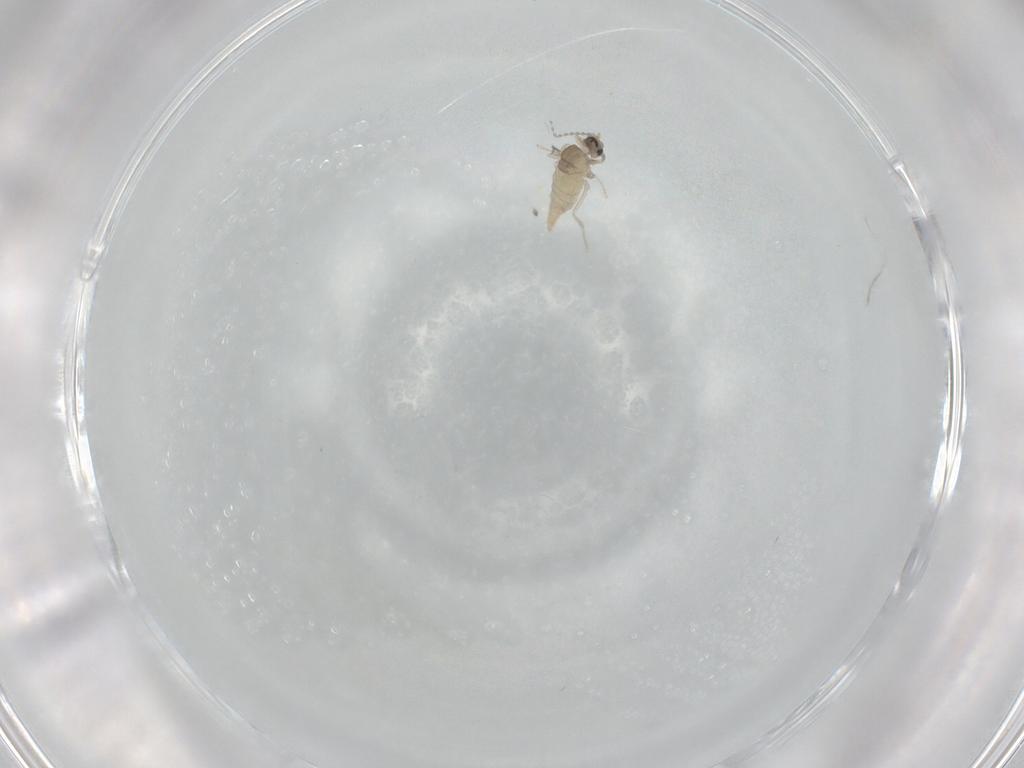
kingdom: Animalia
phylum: Arthropoda
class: Insecta
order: Diptera
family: Cecidomyiidae
